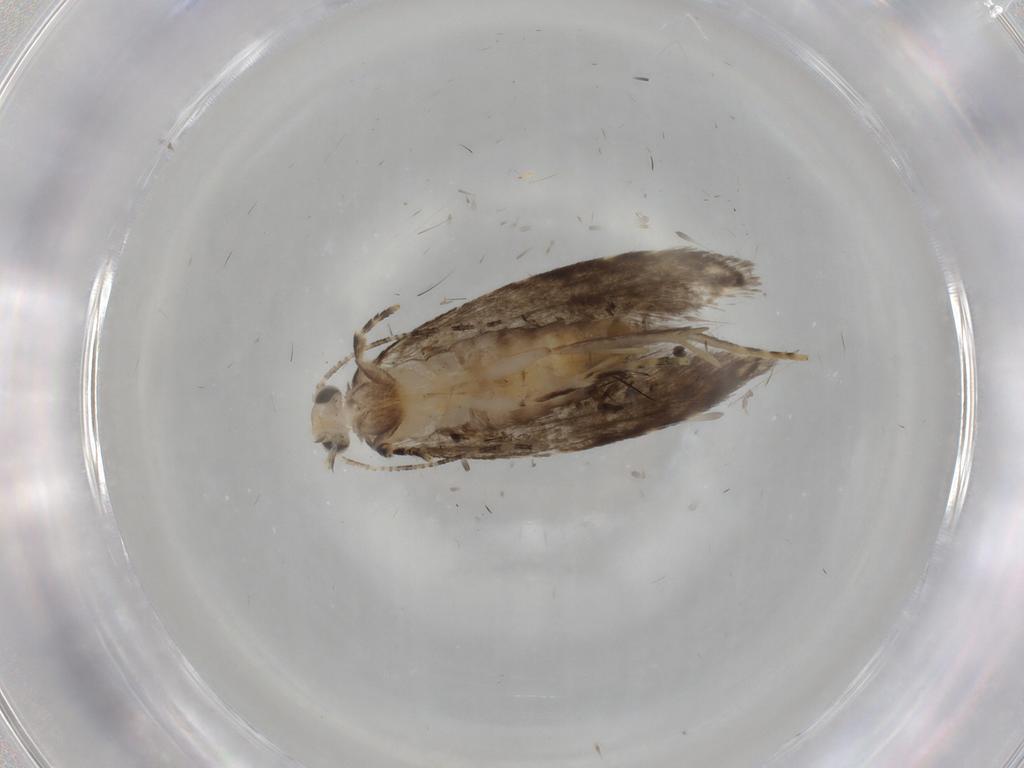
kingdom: Animalia
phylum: Arthropoda
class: Insecta
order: Lepidoptera
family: Tineidae
